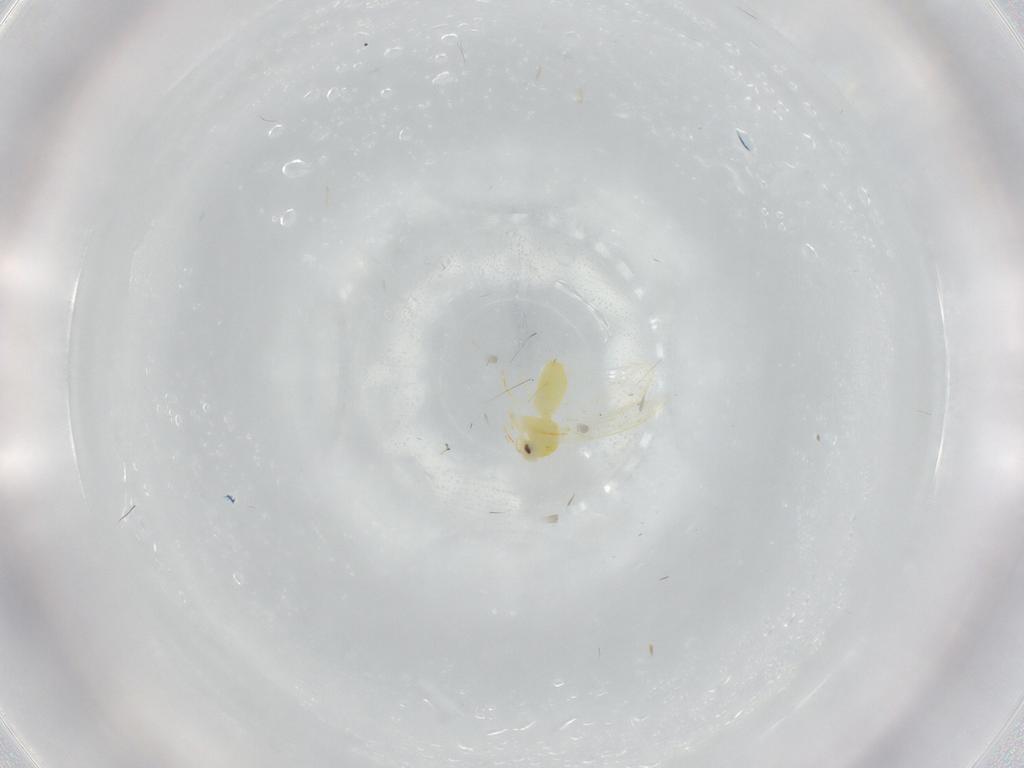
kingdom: Animalia
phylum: Arthropoda
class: Insecta
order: Hemiptera
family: Aleyrodidae
